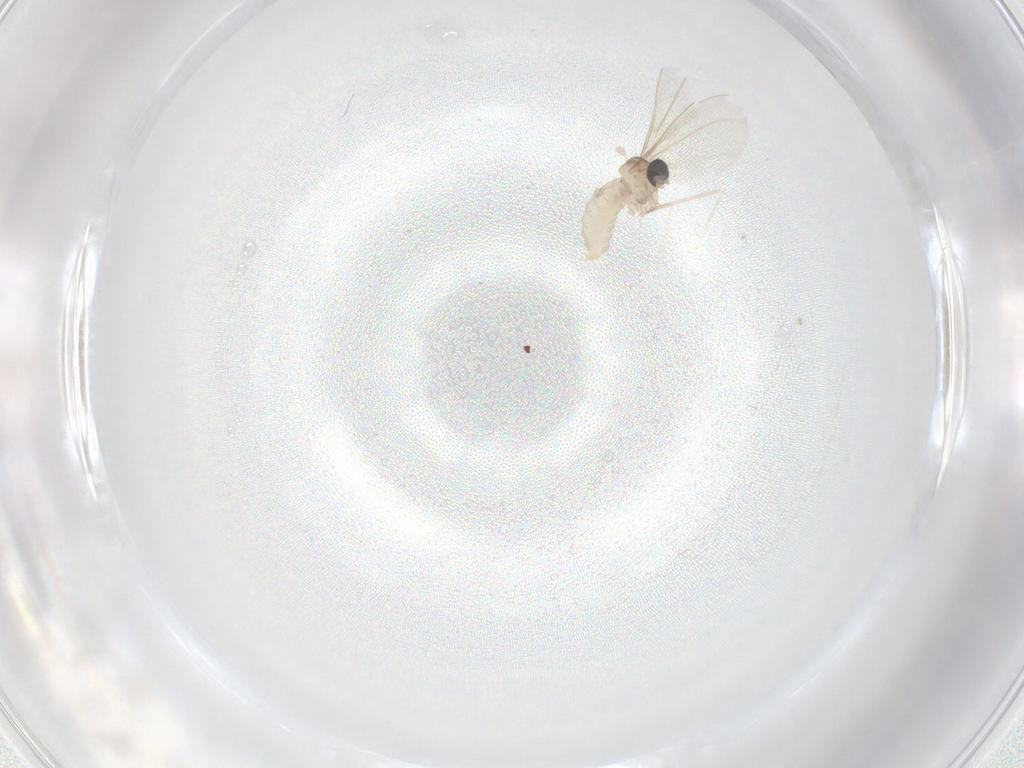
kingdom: Animalia
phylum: Arthropoda
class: Insecta
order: Diptera
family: Cecidomyiidae
